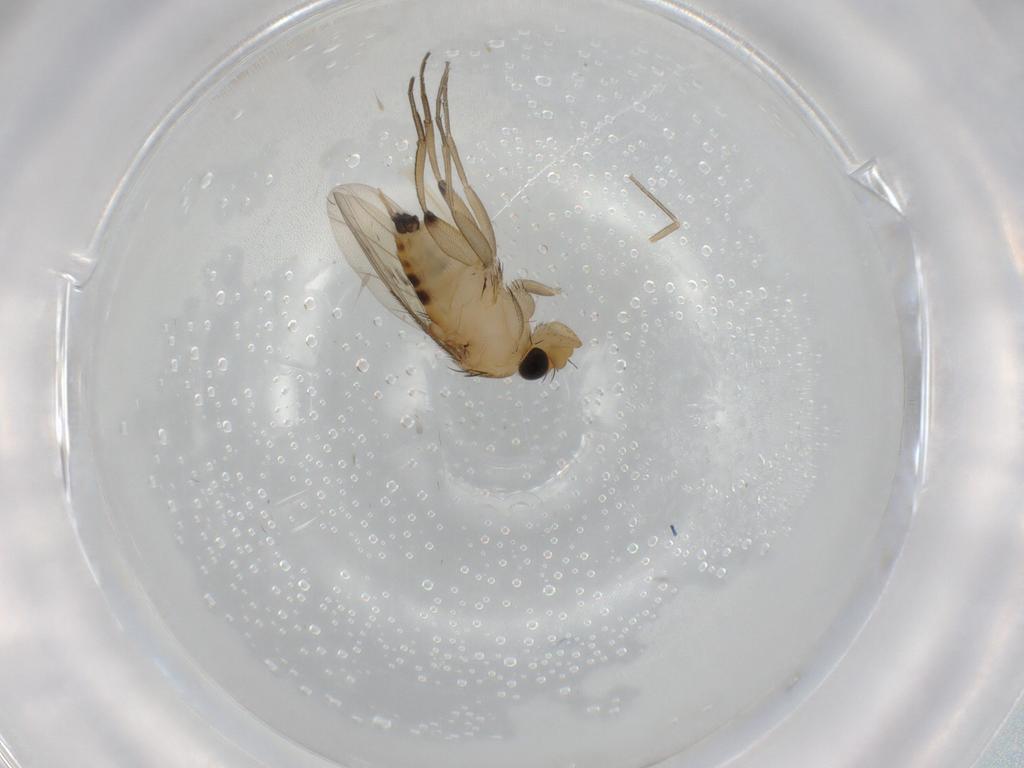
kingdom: Animalia
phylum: Arthropoda
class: Insecta
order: Diptera
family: Phoridae
